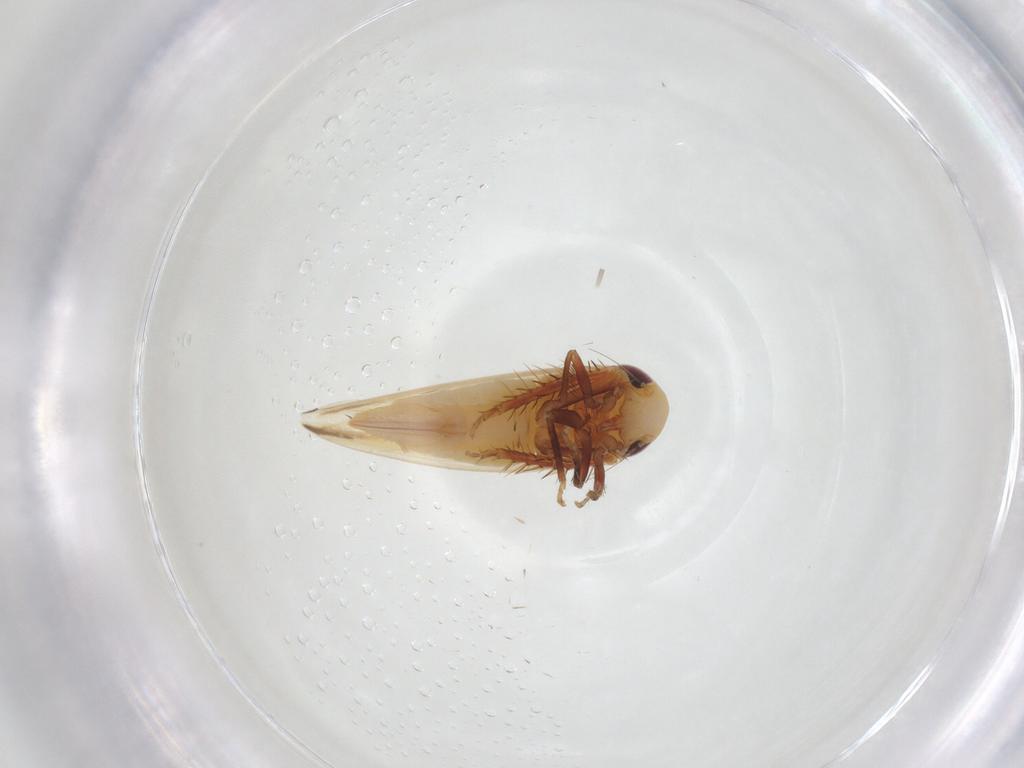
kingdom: Animalia
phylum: Arthropoda
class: Insecta
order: Hemiptera
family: Cicadellidae
